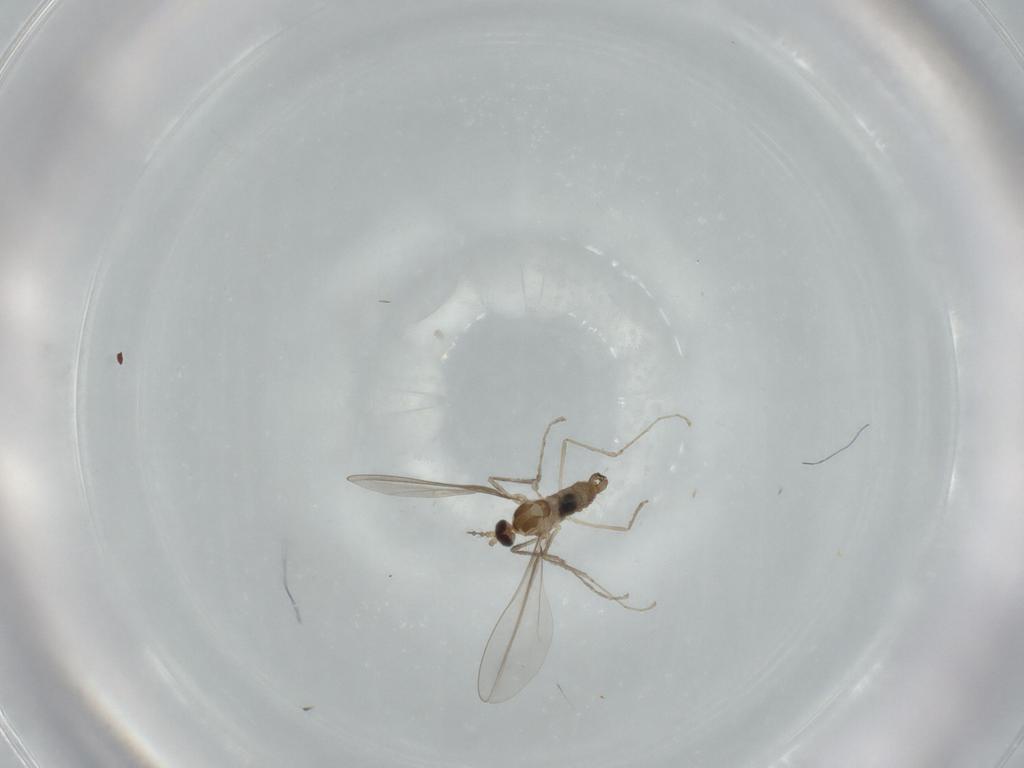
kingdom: Animalia
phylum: Arthropoda
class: Insecta
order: Diptera
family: Cecidomyiidae
